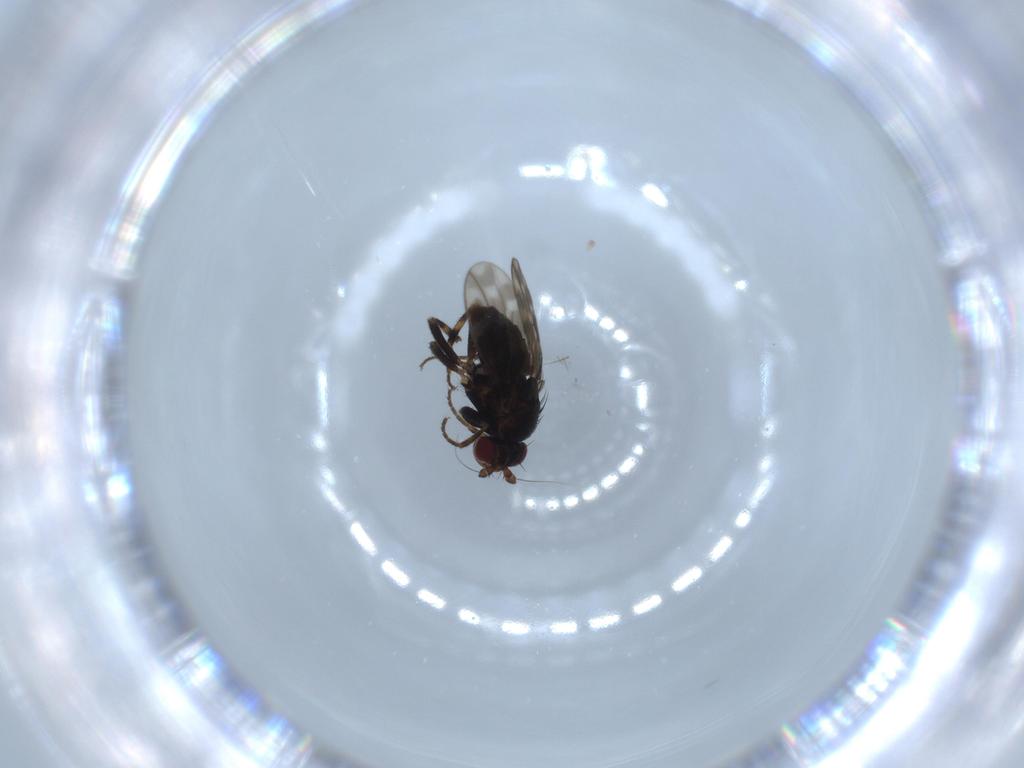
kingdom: Animalia
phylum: Arthropoda
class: Insecta
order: Diptera
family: Sphaeroceridae
